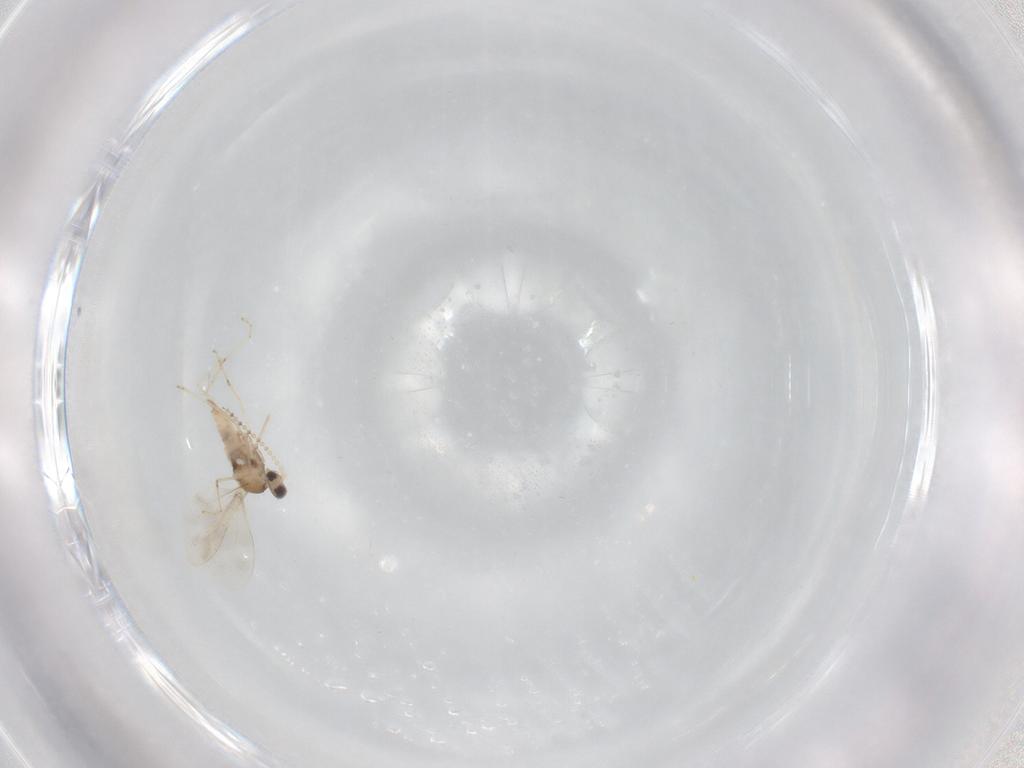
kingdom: Animalia
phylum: Arthropoda
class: Insecta
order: Diptera
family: Cecidomyiidae
